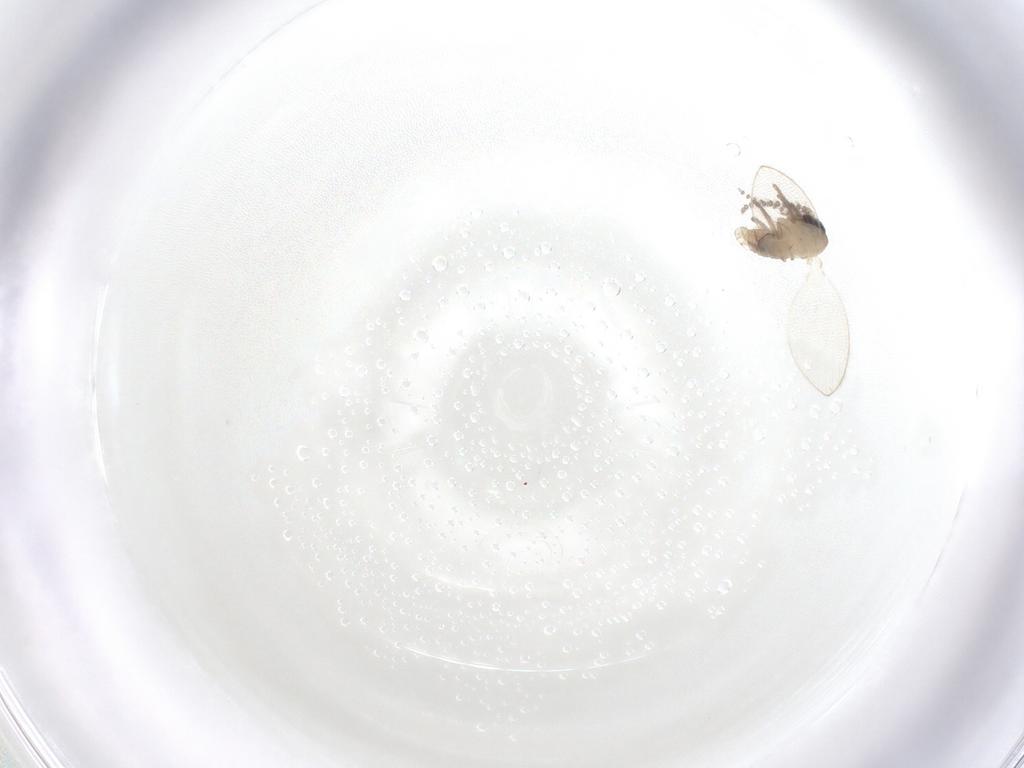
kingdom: Animalia
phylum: Arthropoda
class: Insecta
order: Diptera
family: Psychodidae
